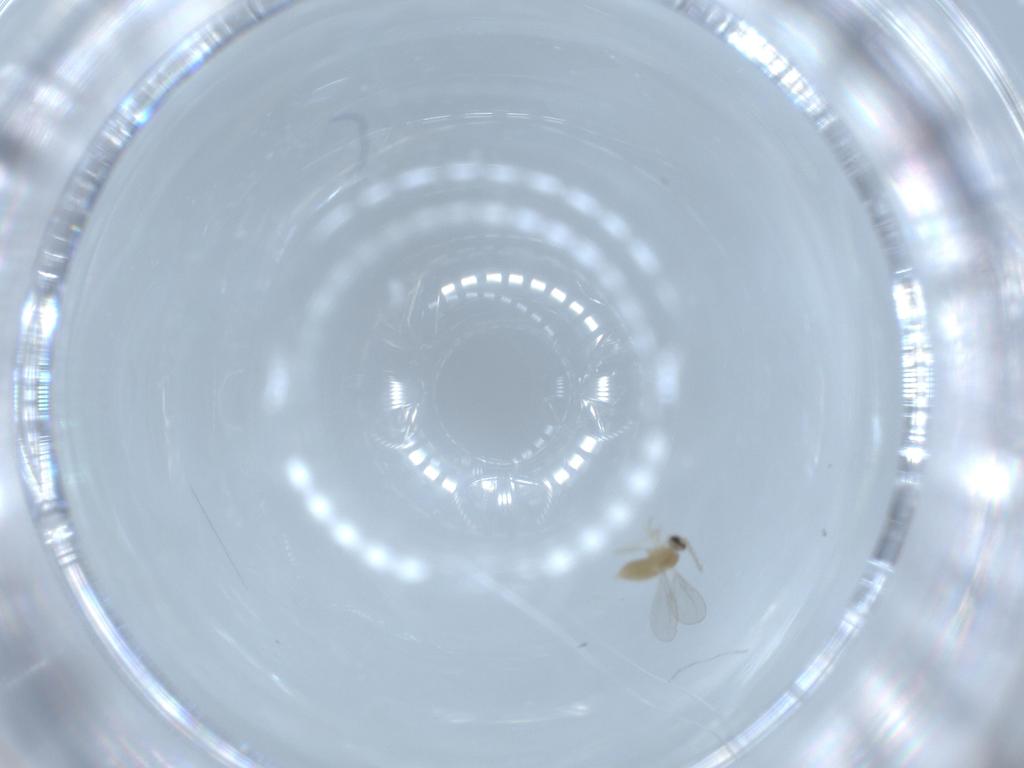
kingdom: Animalia
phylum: Arthropoda
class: Insecta
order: Diptera
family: Cecidomyiidae
